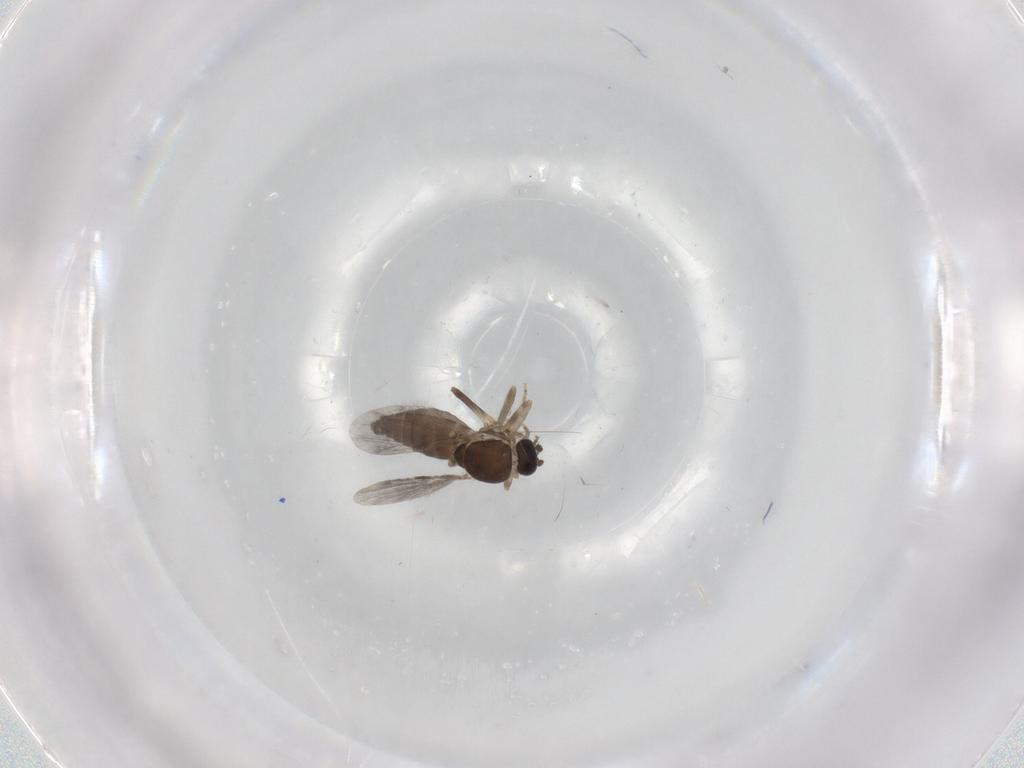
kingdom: Animalia
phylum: Arthropoda
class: Insecta
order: Diptera
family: Ceratopogonidae
